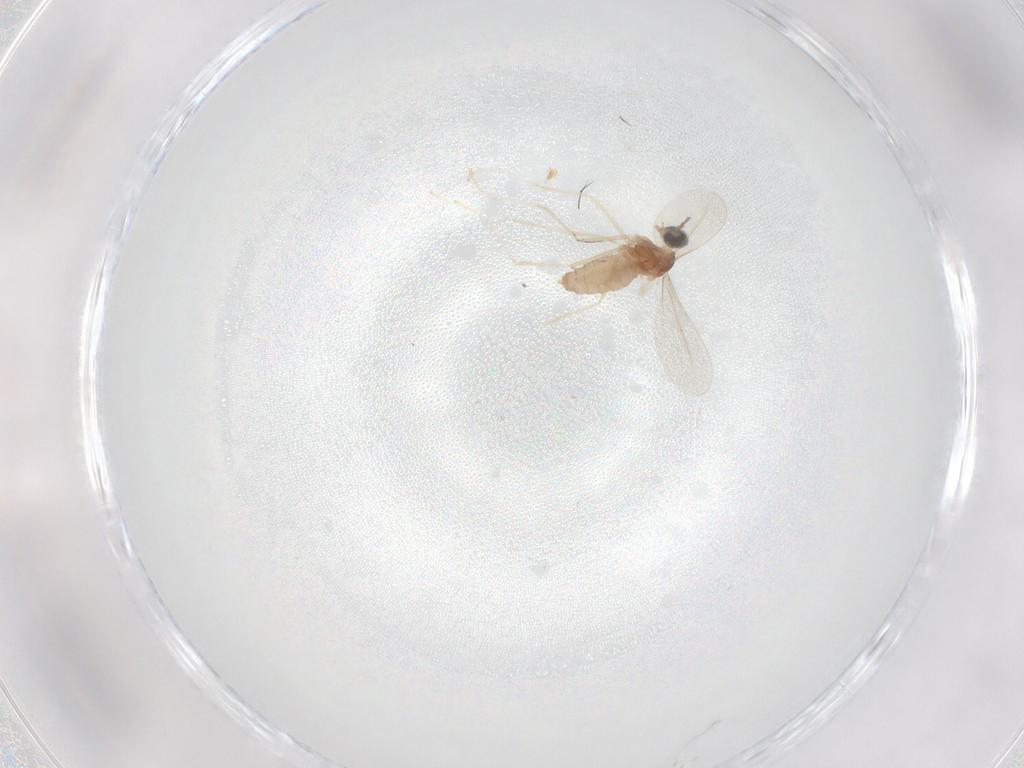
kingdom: Animalia
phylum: Arthropoda
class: Insecta
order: Diptera
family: Cecidomyiidae
